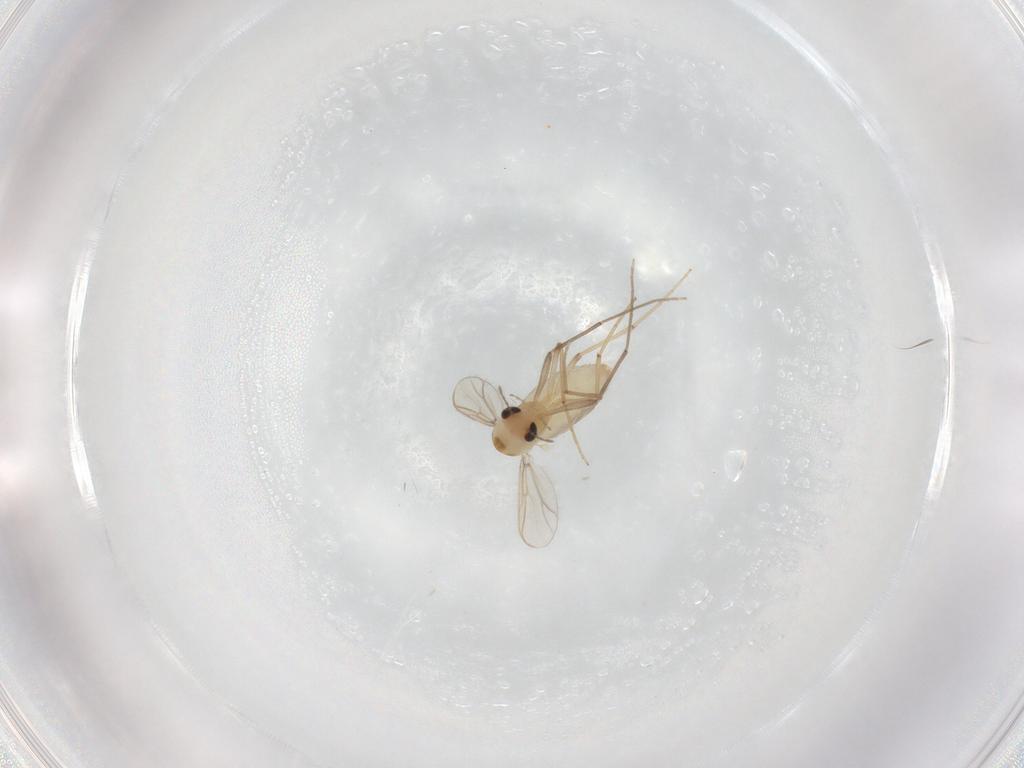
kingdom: Animalia
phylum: Arthropoda
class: Insecta
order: Diptera
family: Chironomidae
